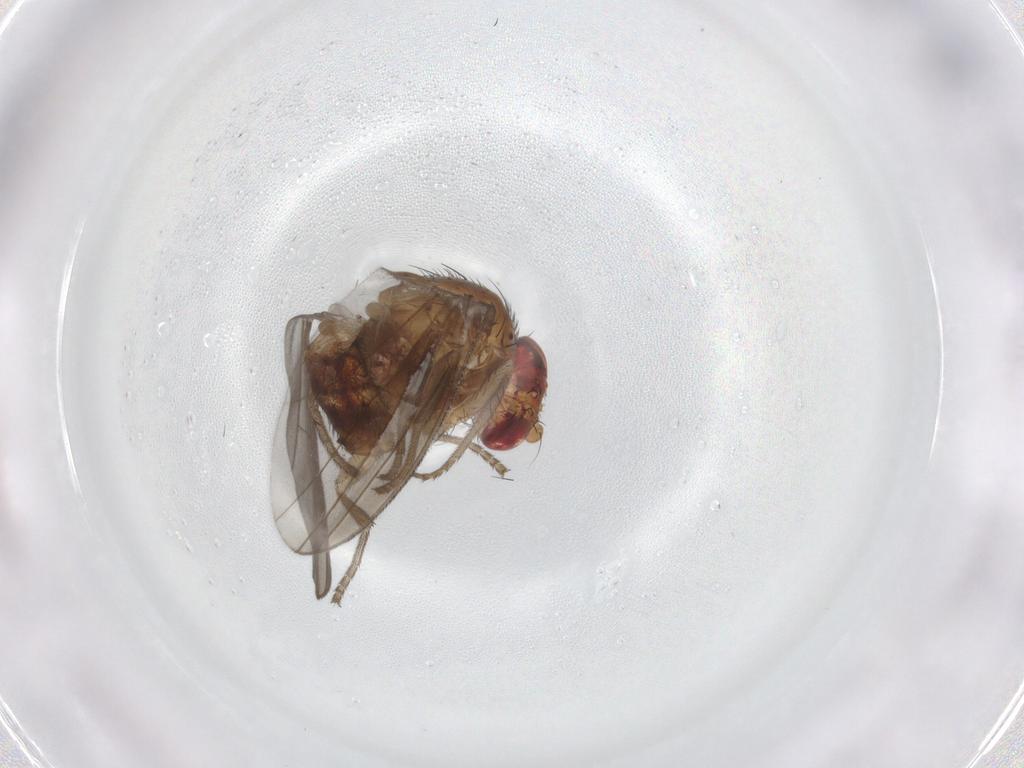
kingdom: Animalia
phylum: Arthropoda
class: Insecta
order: Diptera
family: Natalimyzidae
